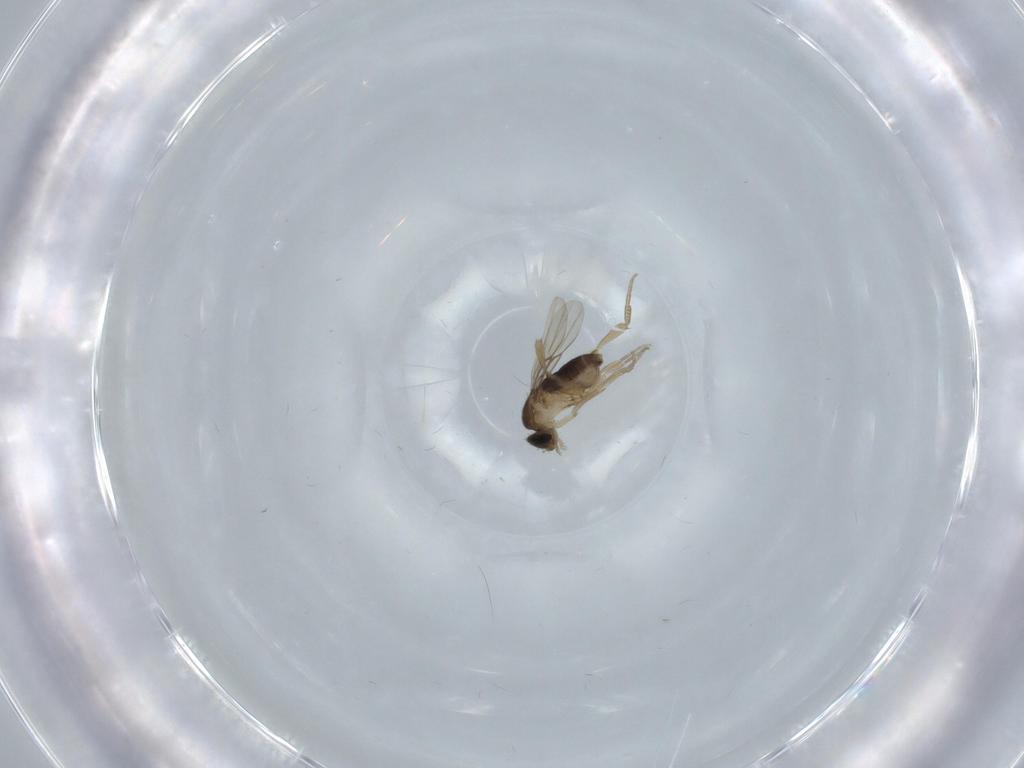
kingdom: Animalia
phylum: Arthropoda
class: Insecta
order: Diptera
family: Phoridae
